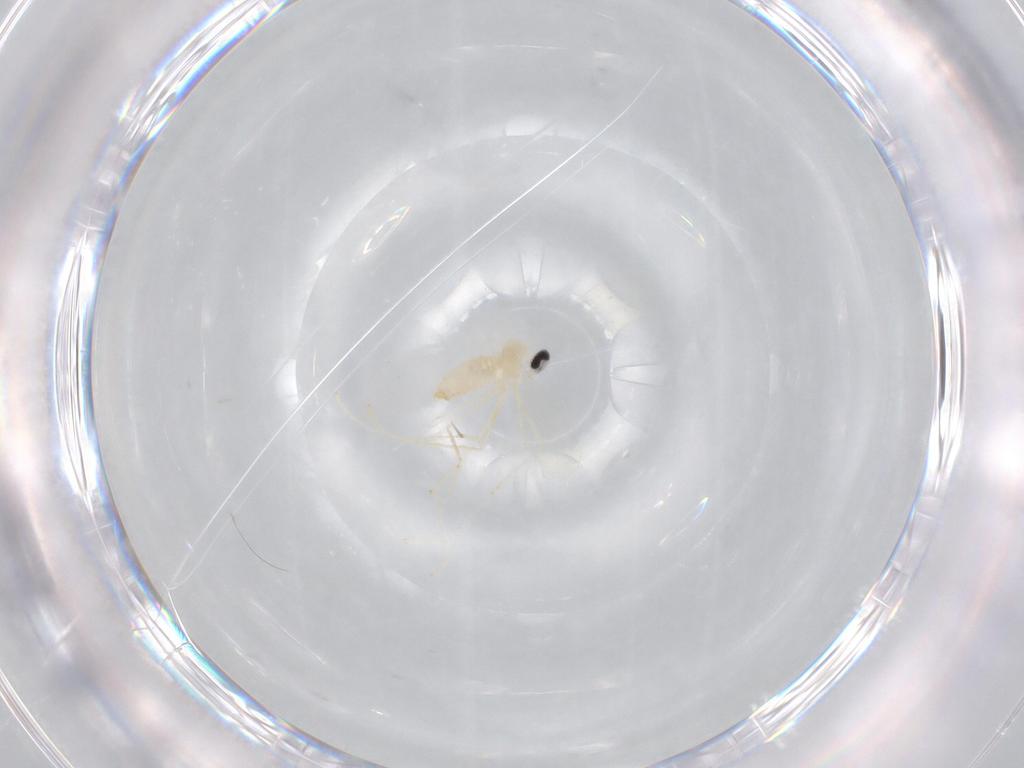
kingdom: Animalia
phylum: Arthropoda
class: Insecta
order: Diptera
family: Cecidomyiidae
